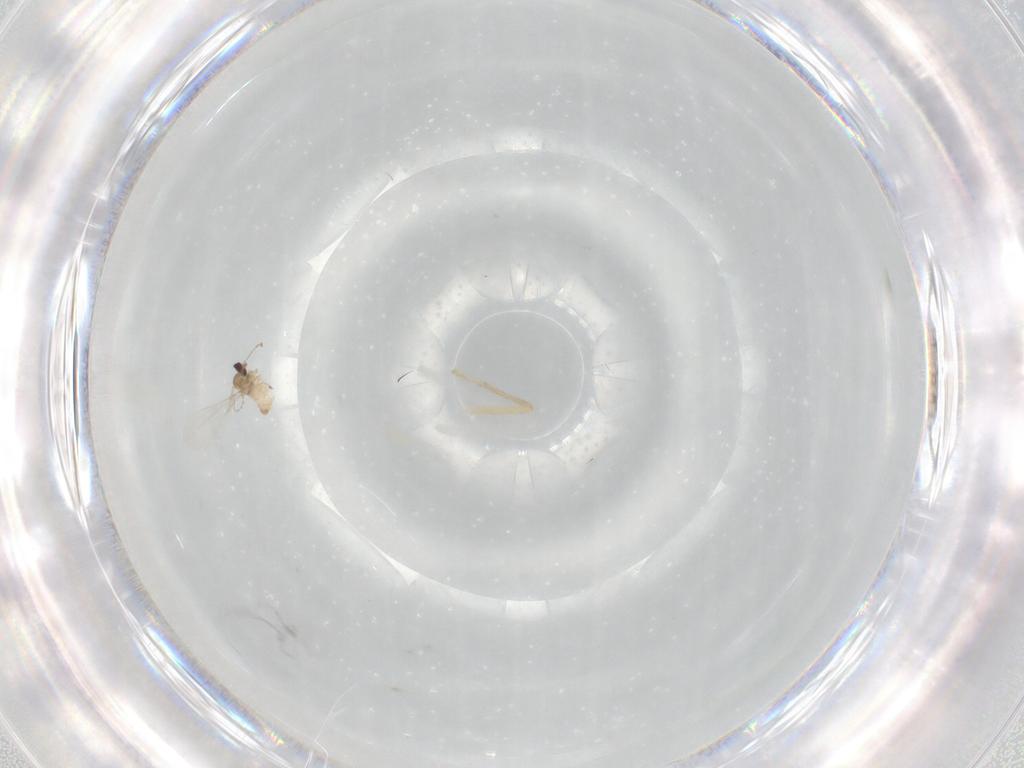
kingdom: Animalia
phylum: Arthropoda
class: Insecta
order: Diptera
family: Cecidomyiidae
